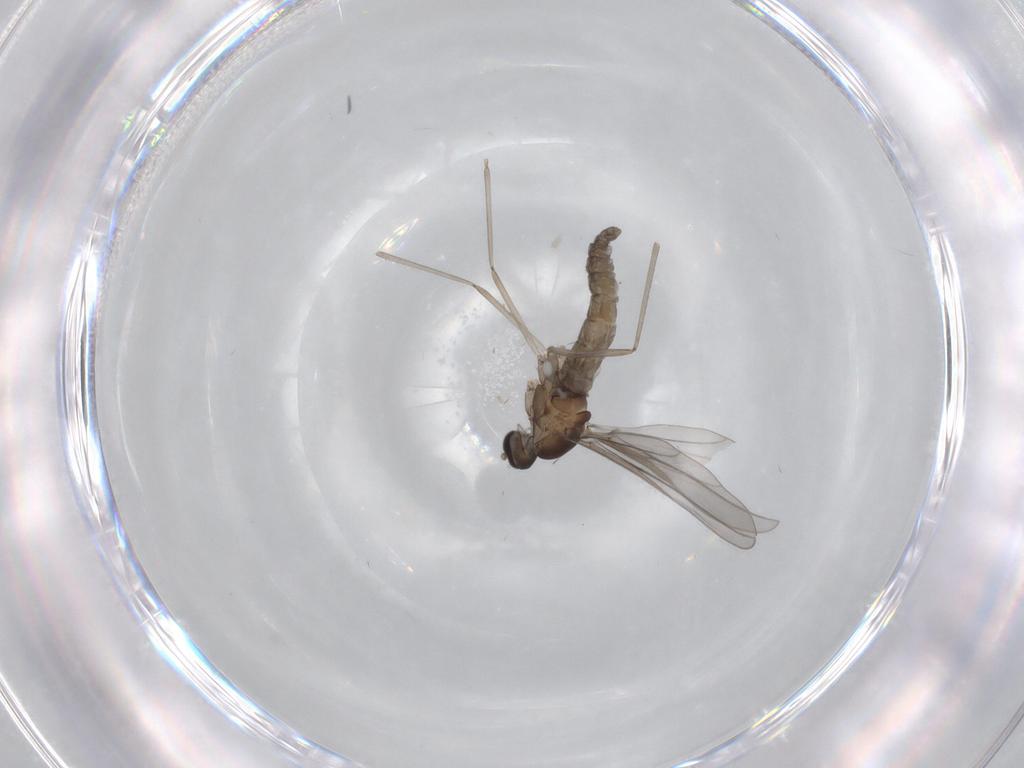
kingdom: Animalia
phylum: Arthropoda
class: Insecta
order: Diptera
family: Cecidomyiidae
